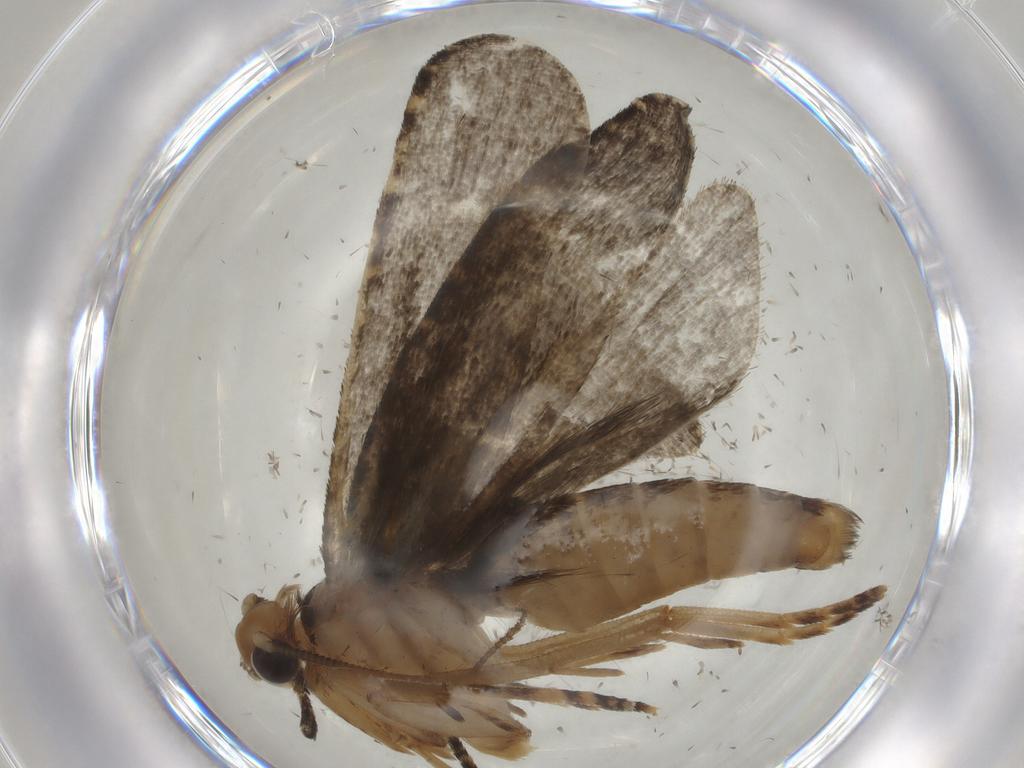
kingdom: Animalia
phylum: Arthropoda
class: Insecta
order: Lepidoptera
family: Tineidae
